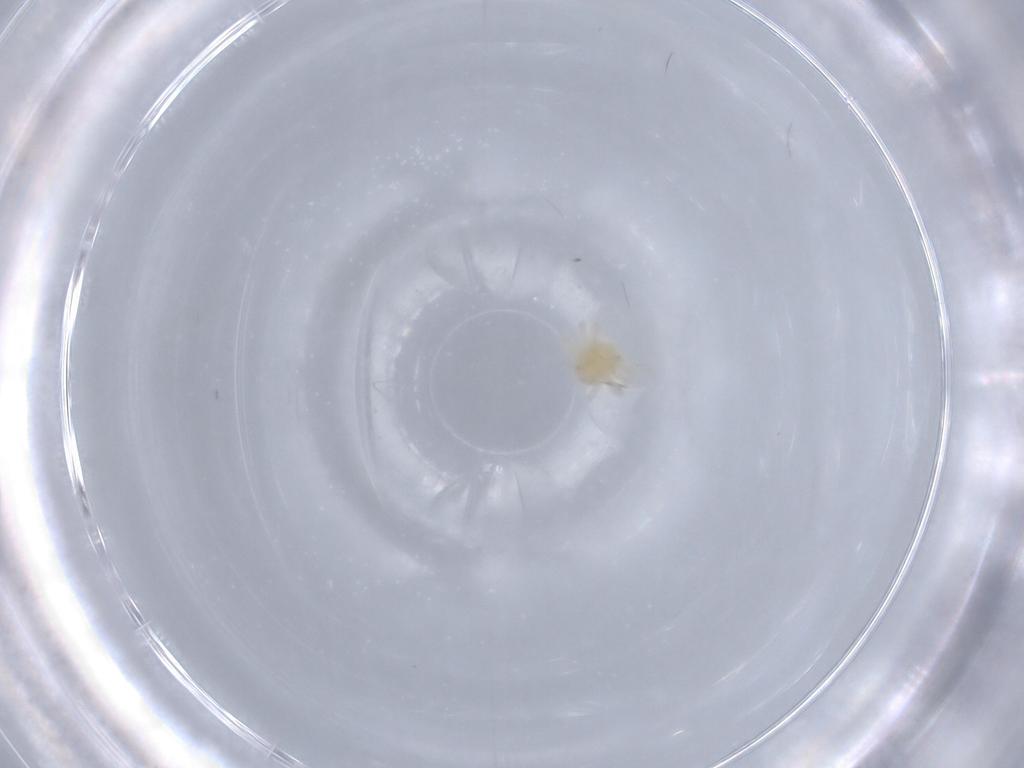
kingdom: Animalia
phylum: Arthropoda
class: Arachnida
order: Trombidiformes
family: Anystidae
